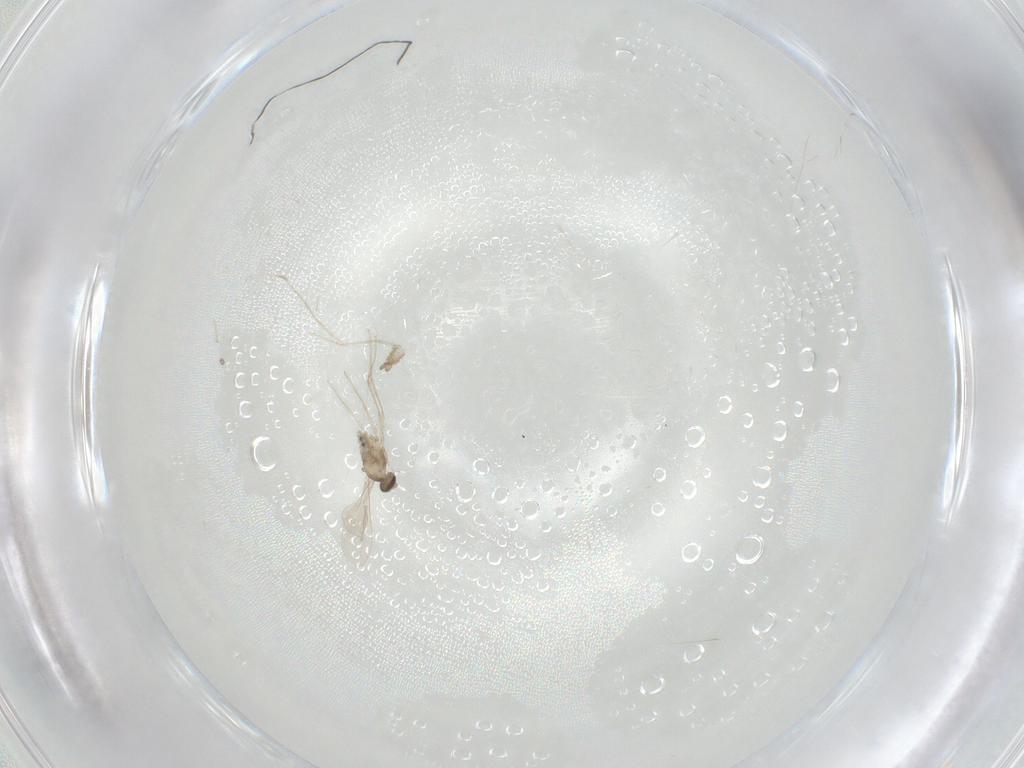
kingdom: Animalia
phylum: Arthropoda
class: Insecta
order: Diptera
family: Cecidomyiidae
